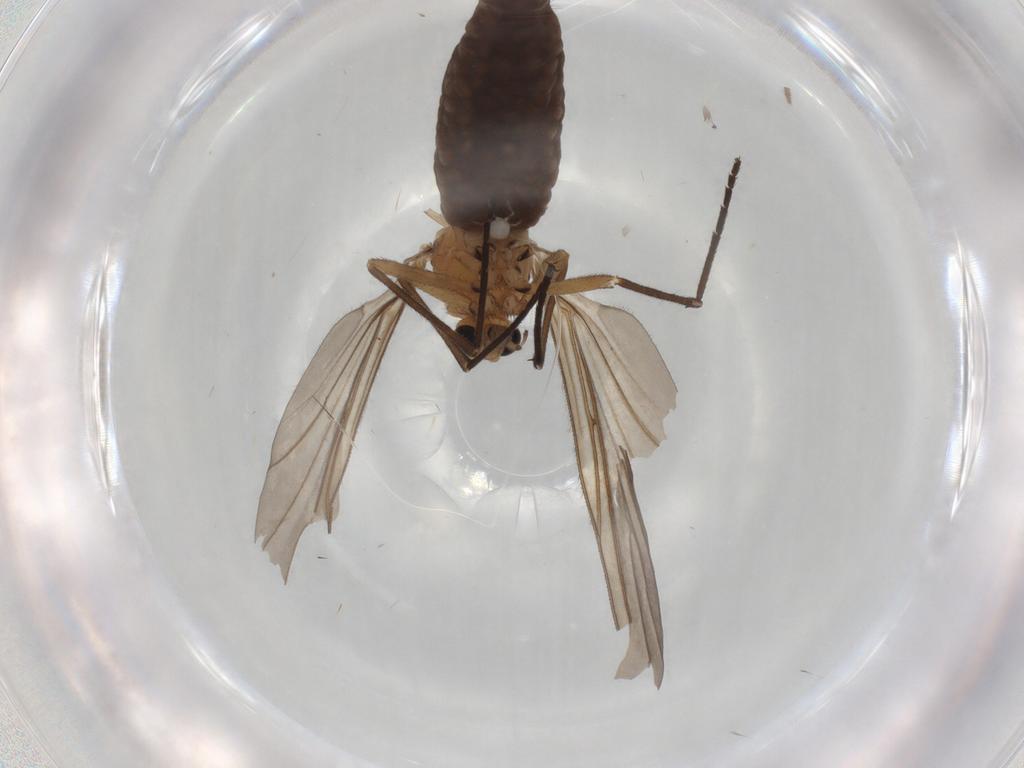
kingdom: Animalia
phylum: Arthropoda
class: Insecta
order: Diptera
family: Sciaridae
